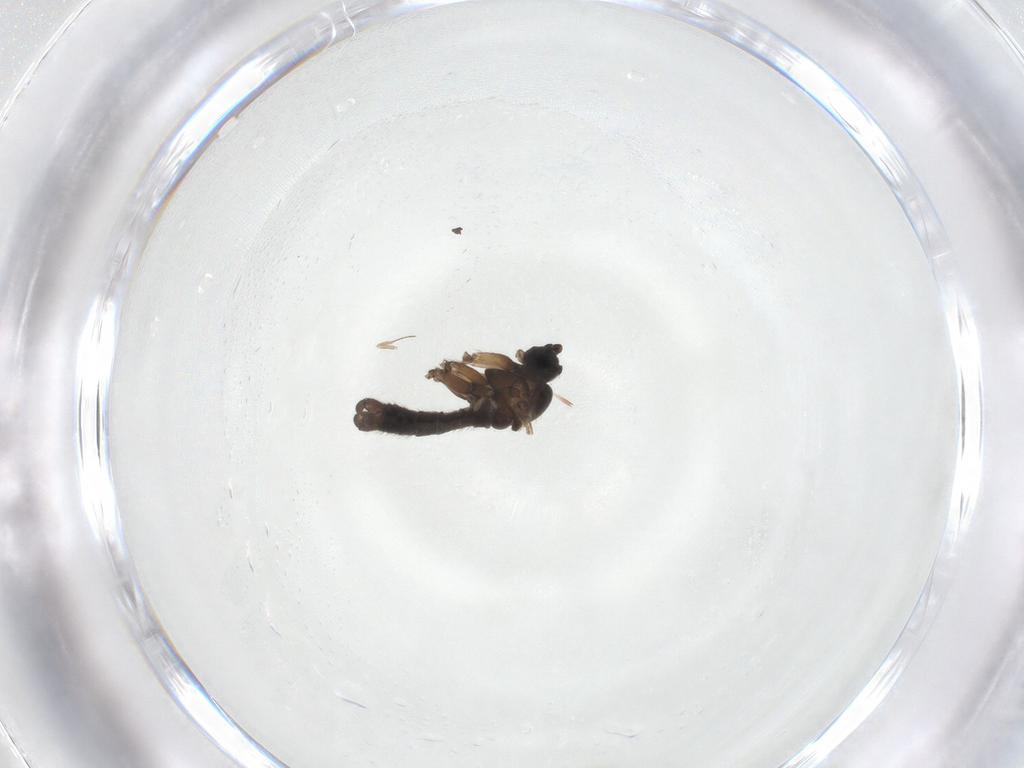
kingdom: Animalia
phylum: Arthropoda
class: Insecta
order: Diptera
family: Sciaridae
